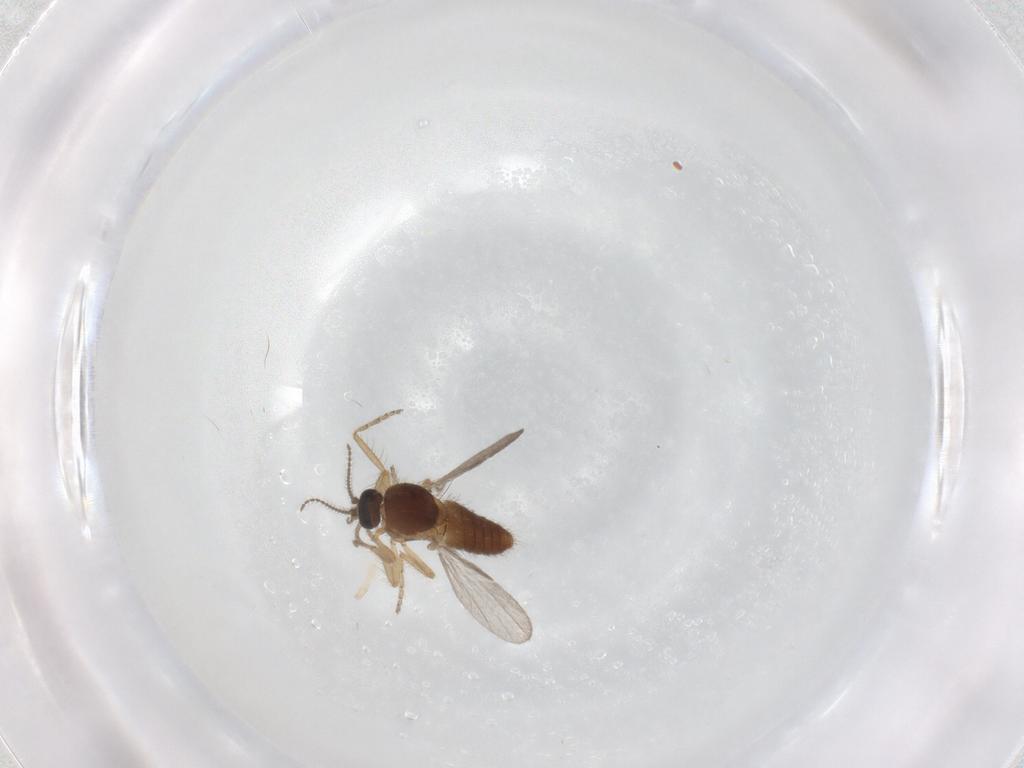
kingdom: Animalia
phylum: Arthropoda
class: Insecta
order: Diptera
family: Ceratopogonidae
